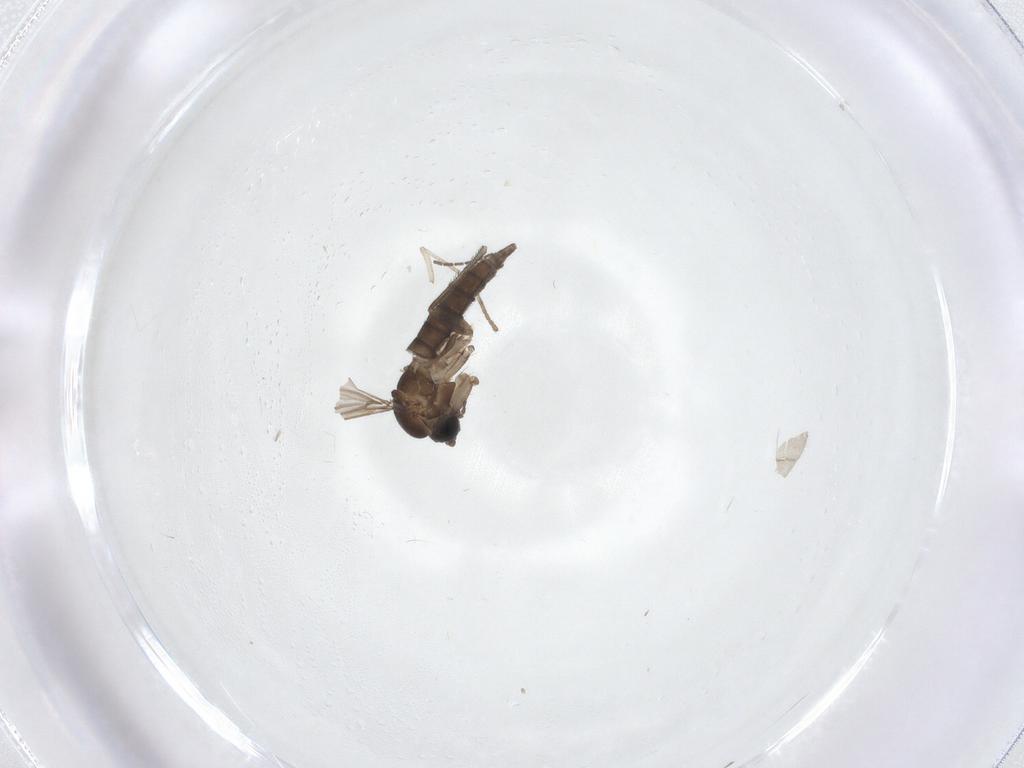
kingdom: Animalia
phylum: Arthropoda
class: Insecta
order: Diptera
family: Sciaridae
